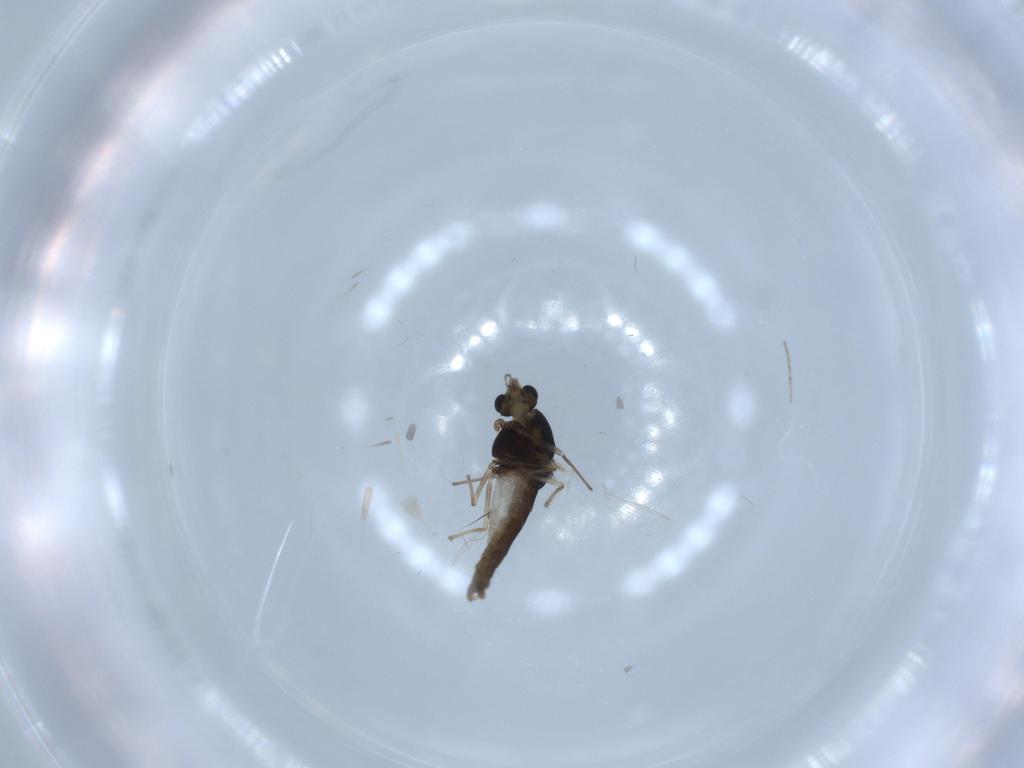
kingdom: Animalia
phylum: Arthropoda
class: Insecta
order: Diptera
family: Chironomidae
